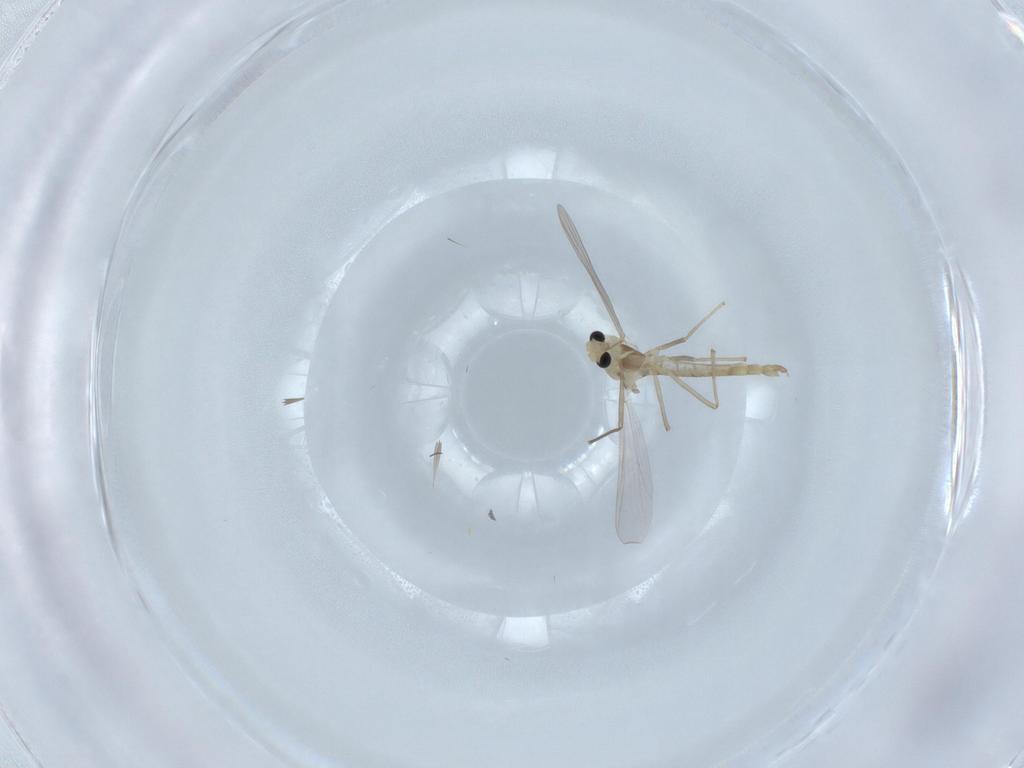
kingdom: Animalia
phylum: Arthropoda
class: Insecta
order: Diptera
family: Chironomidae
